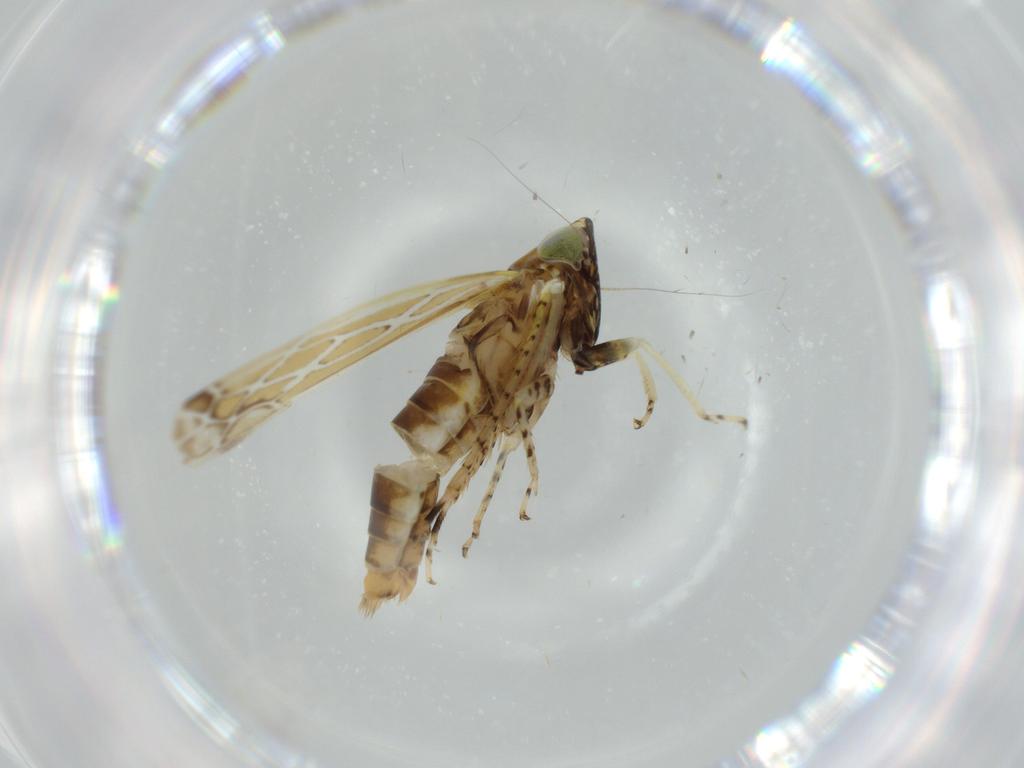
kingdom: Animalia
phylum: Arthropoda
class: Insecta
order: Hemiptera
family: Cicadellidae
